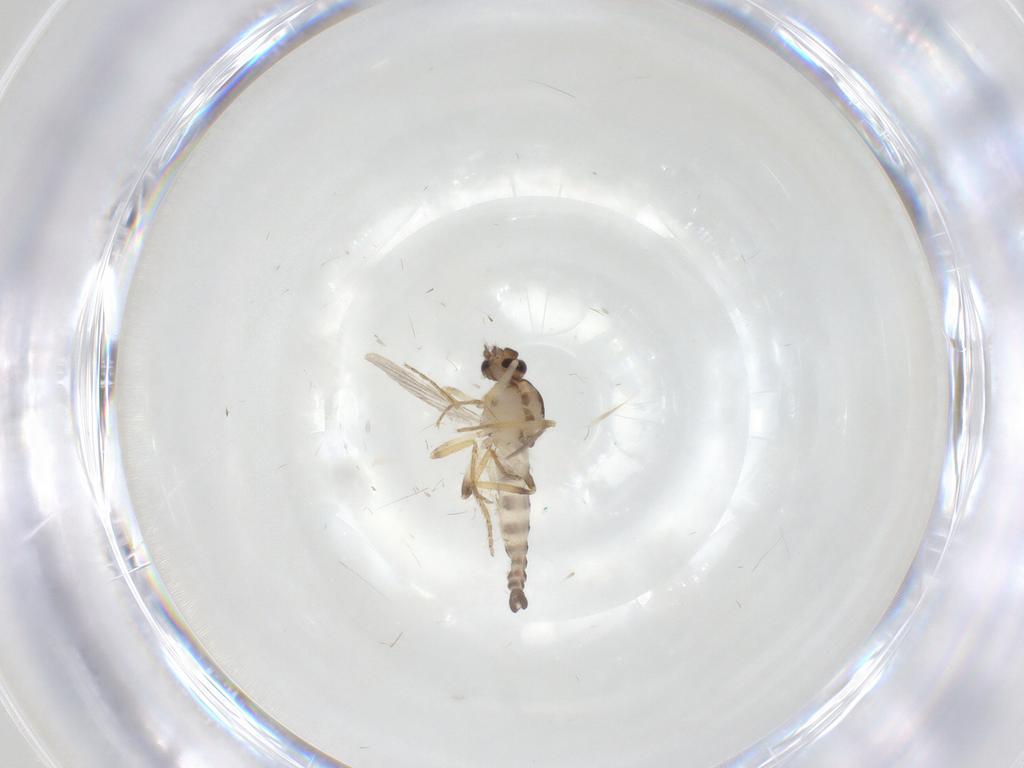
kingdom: Animalia
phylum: Arthropoda
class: Insecta
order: Diptera
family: Ceratopogonidae
